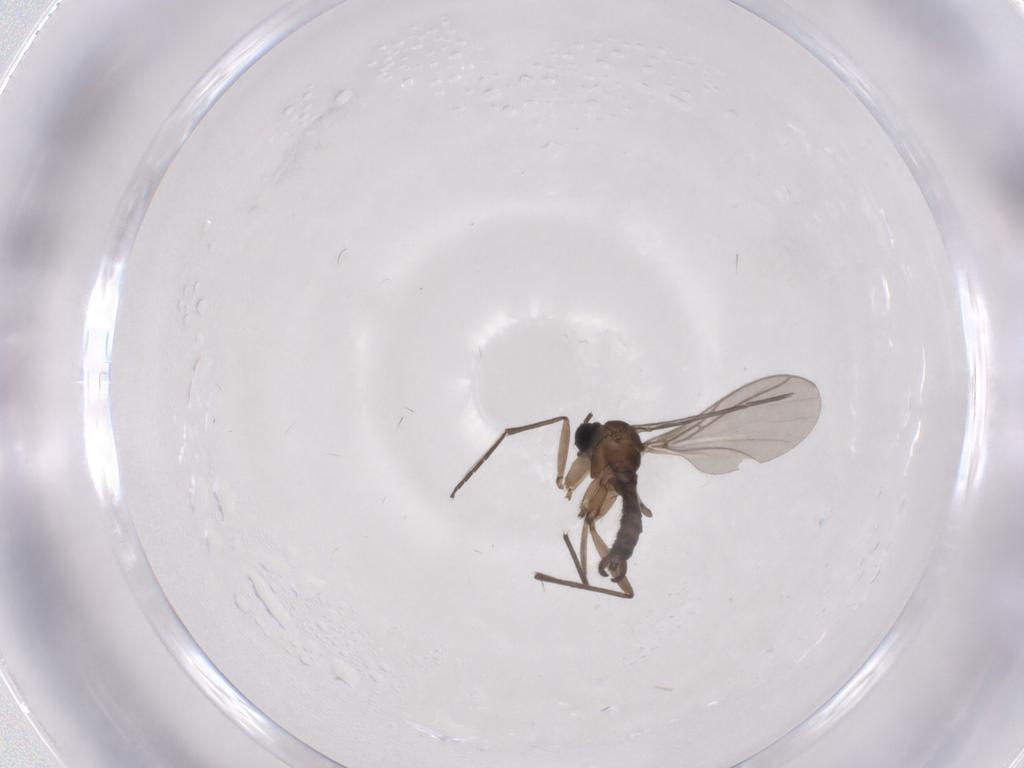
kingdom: Animalia
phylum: Arthropoda
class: Insecta
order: Diptera
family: Sciaridae
